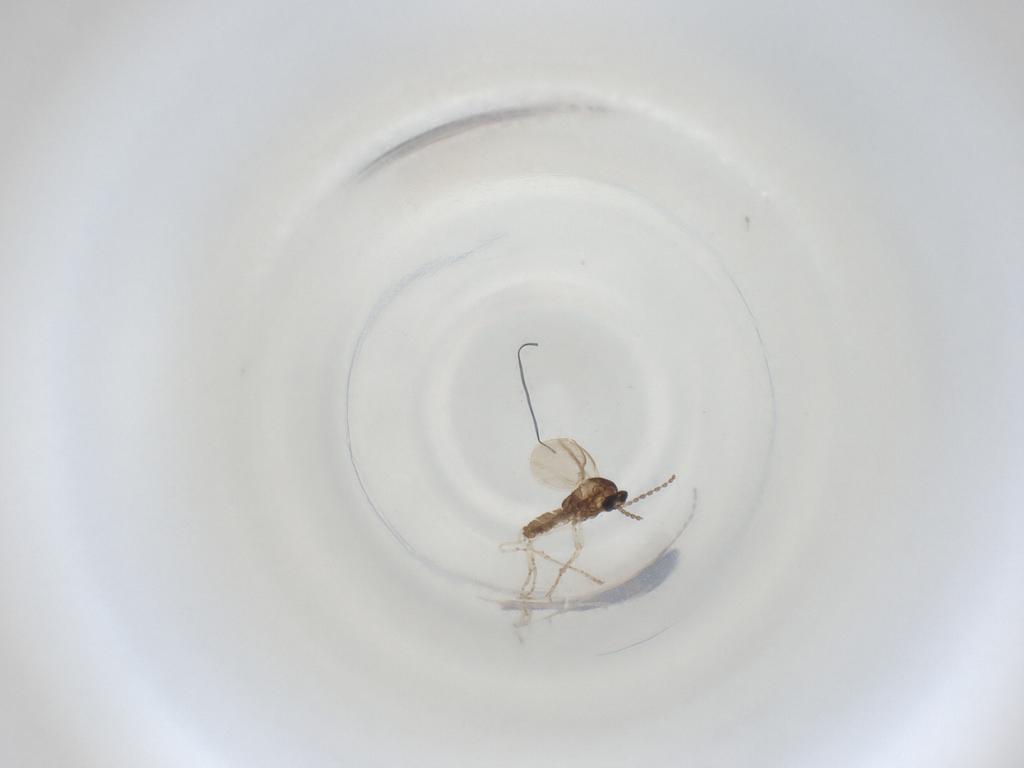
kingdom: Animalia
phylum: Arthropoda
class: Insecta
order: Diptera
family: Cecidomyiidae
